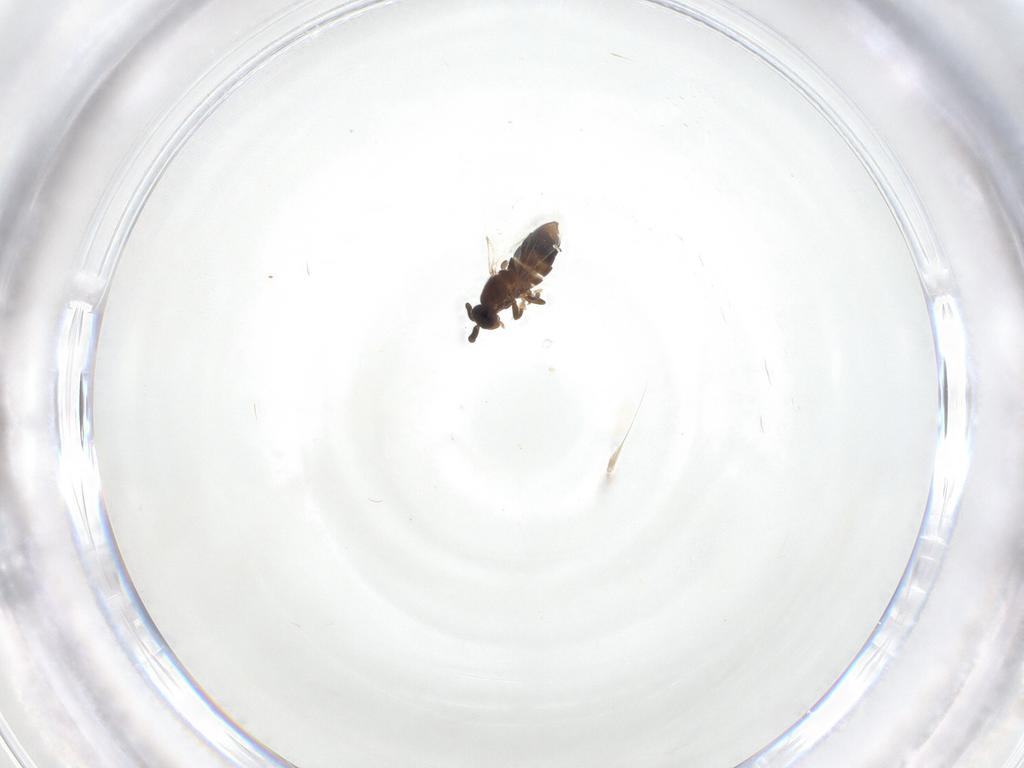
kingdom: Animalia
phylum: Arthropoda
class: Insecta
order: Diptera
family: Scatopsidae
